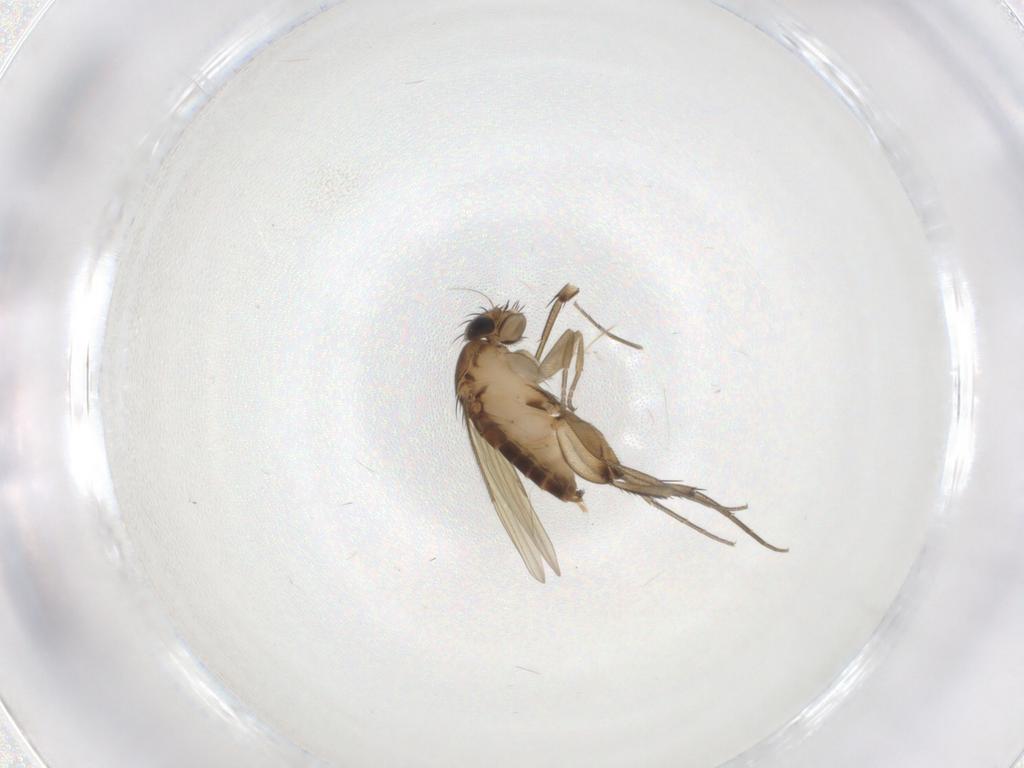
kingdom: Animalia
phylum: Arthropoda
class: Insecta
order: Diptera
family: Phoridae
